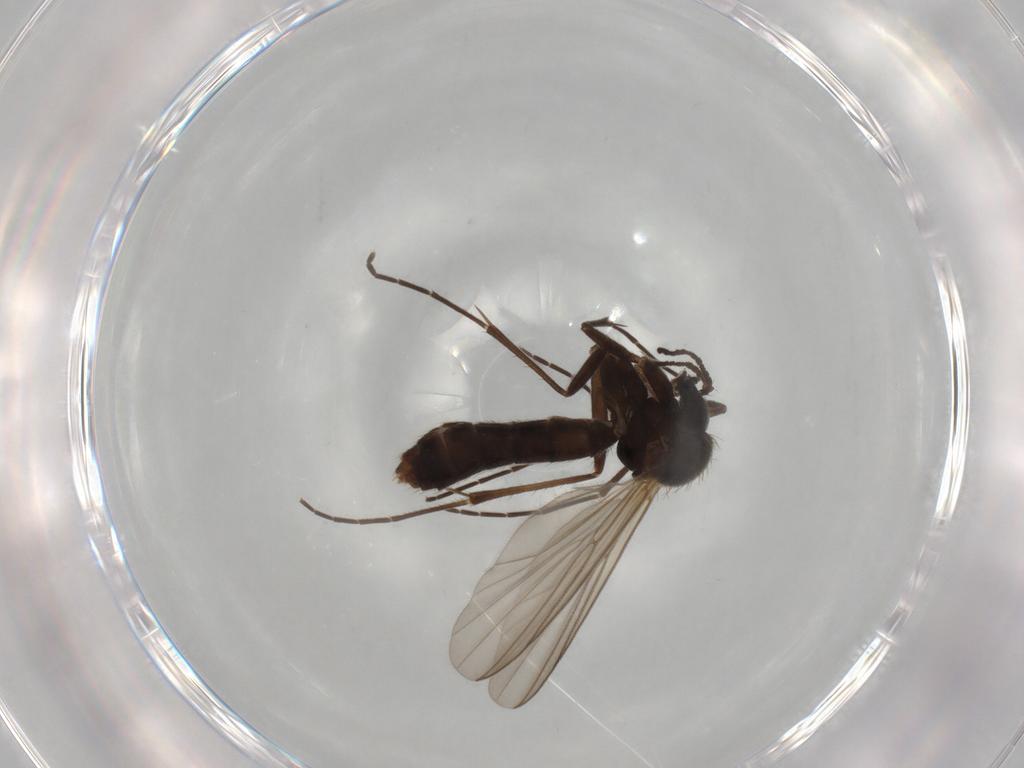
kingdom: Animalia
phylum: Arthropoda
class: Insecta
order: Diptera
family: Mycetophilidae
